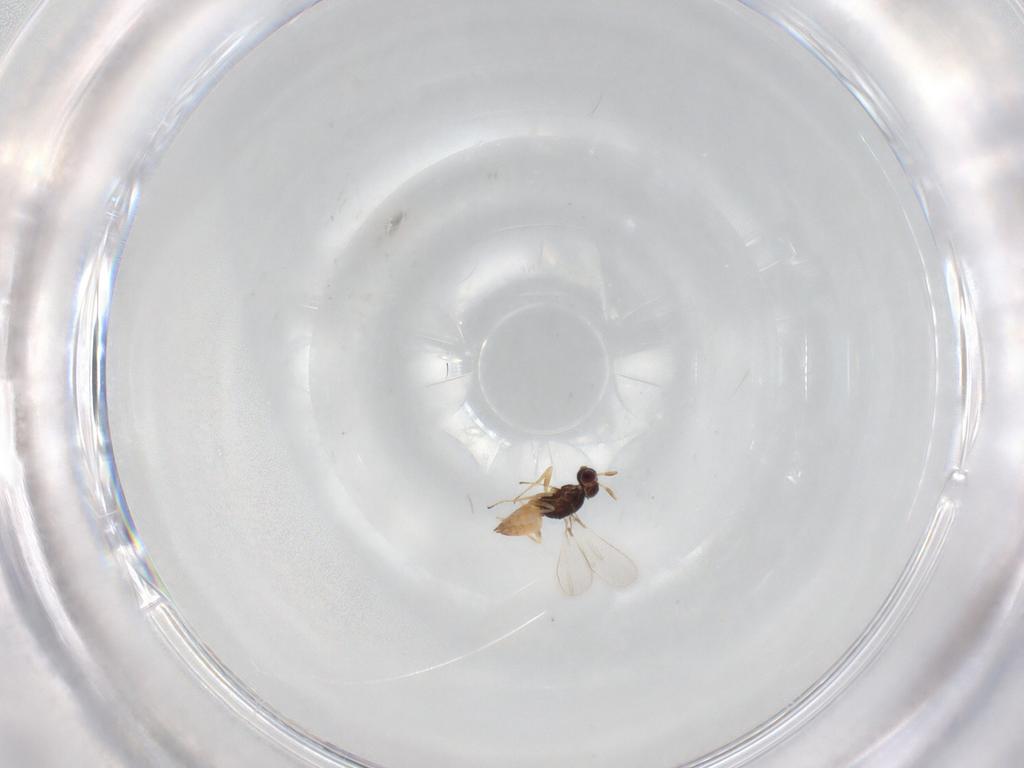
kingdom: Animalia
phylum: Arthropoda
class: Insecta
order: Hymenoptera
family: Mymaridae
